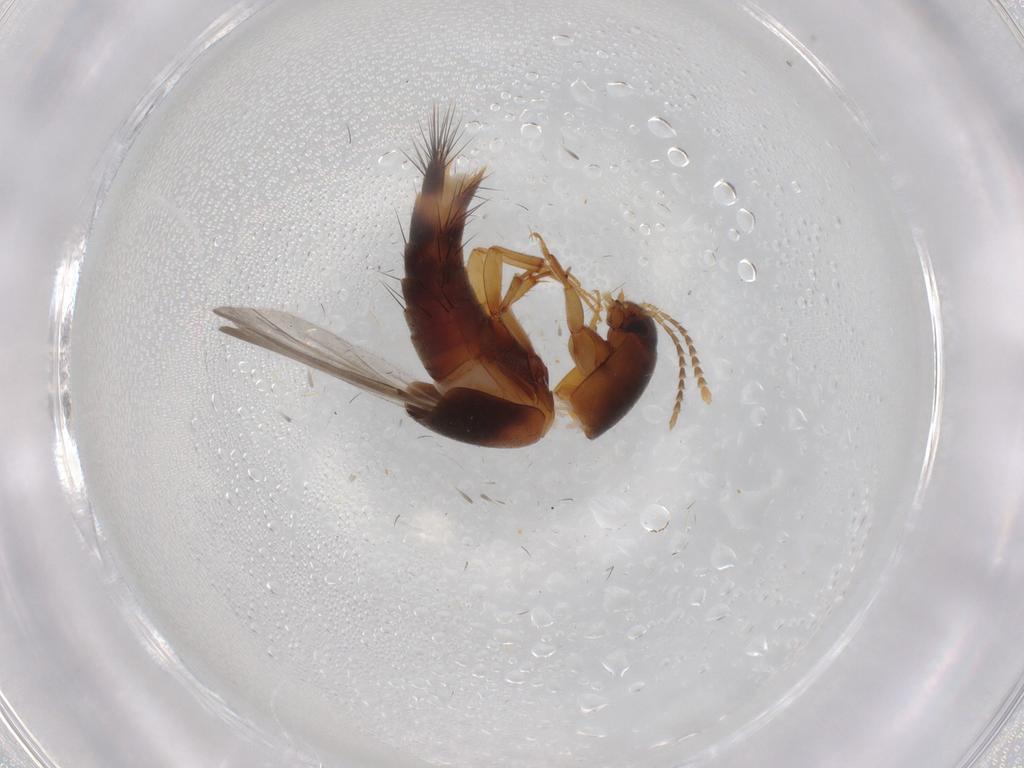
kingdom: Animalia
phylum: Arthropoda
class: Insecta
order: Coleoptera
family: Staphylinidae
